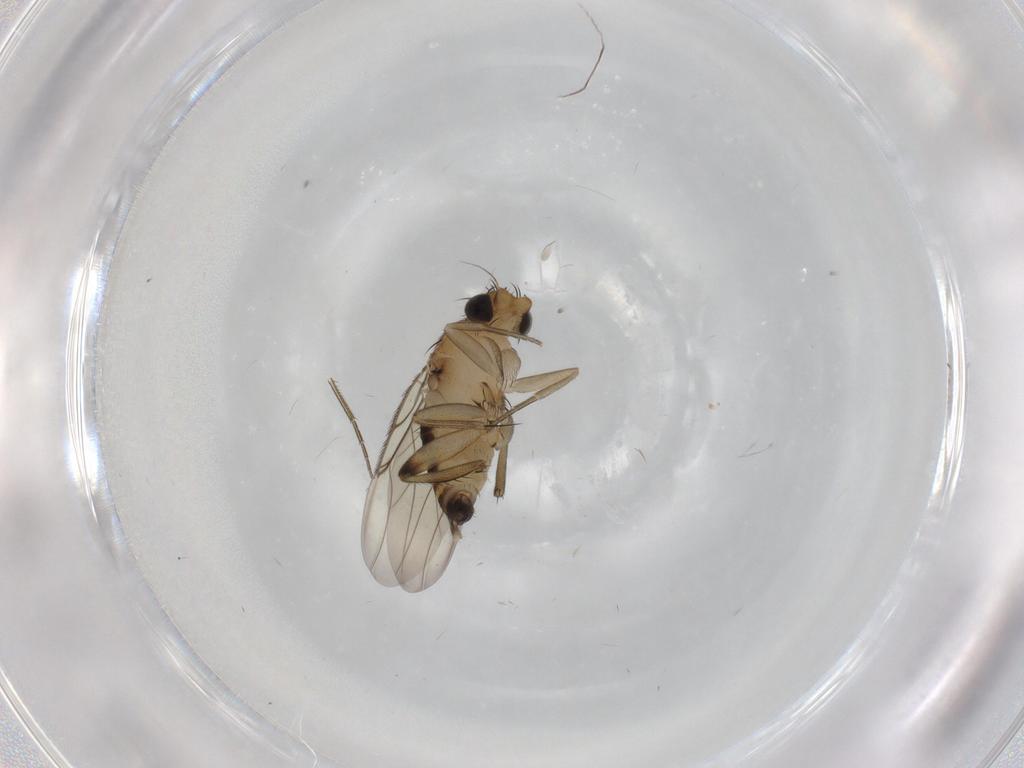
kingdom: Animalia
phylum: Arthropoda
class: Insecta
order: Diptera
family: Phoridae
